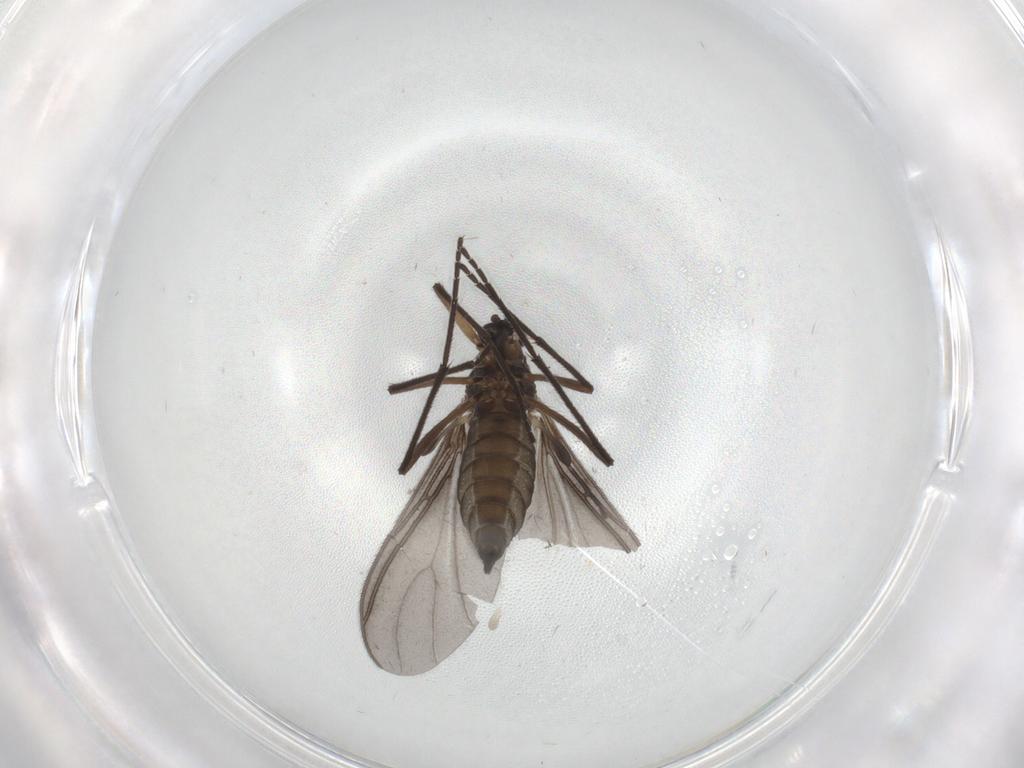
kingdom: Animalia
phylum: Arthropoda
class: Insecta
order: Diptera
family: Sciaridae
